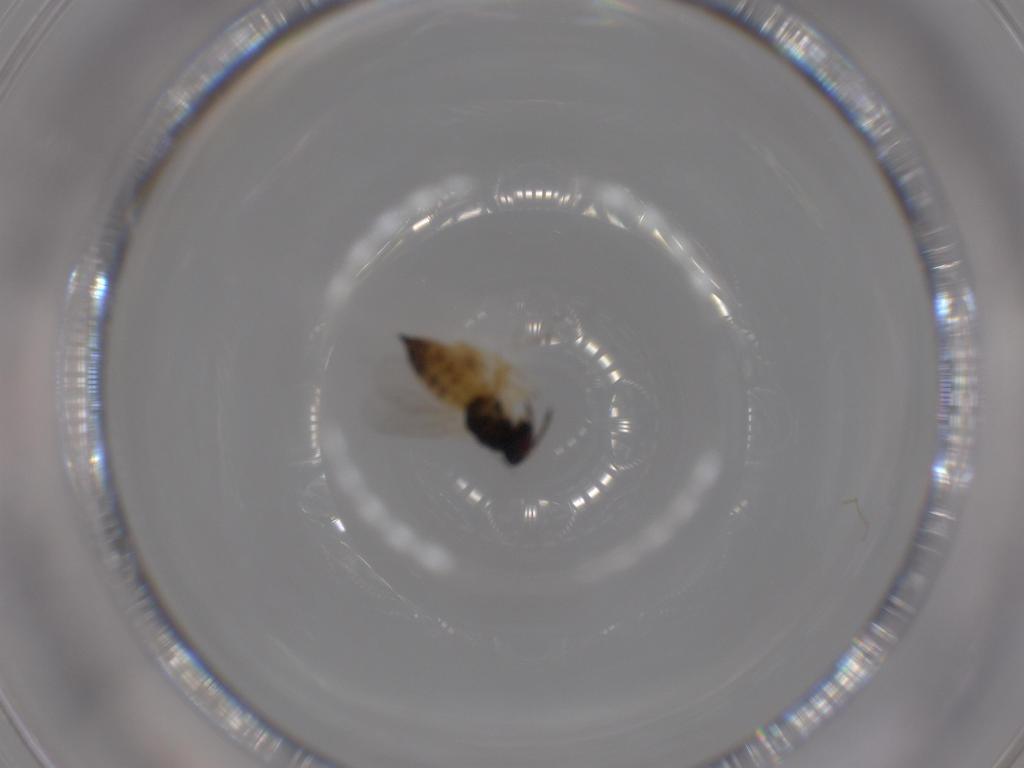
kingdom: Animalia
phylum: Arthropoda
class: Insecta
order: Hymenoptera
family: Eulophidae
